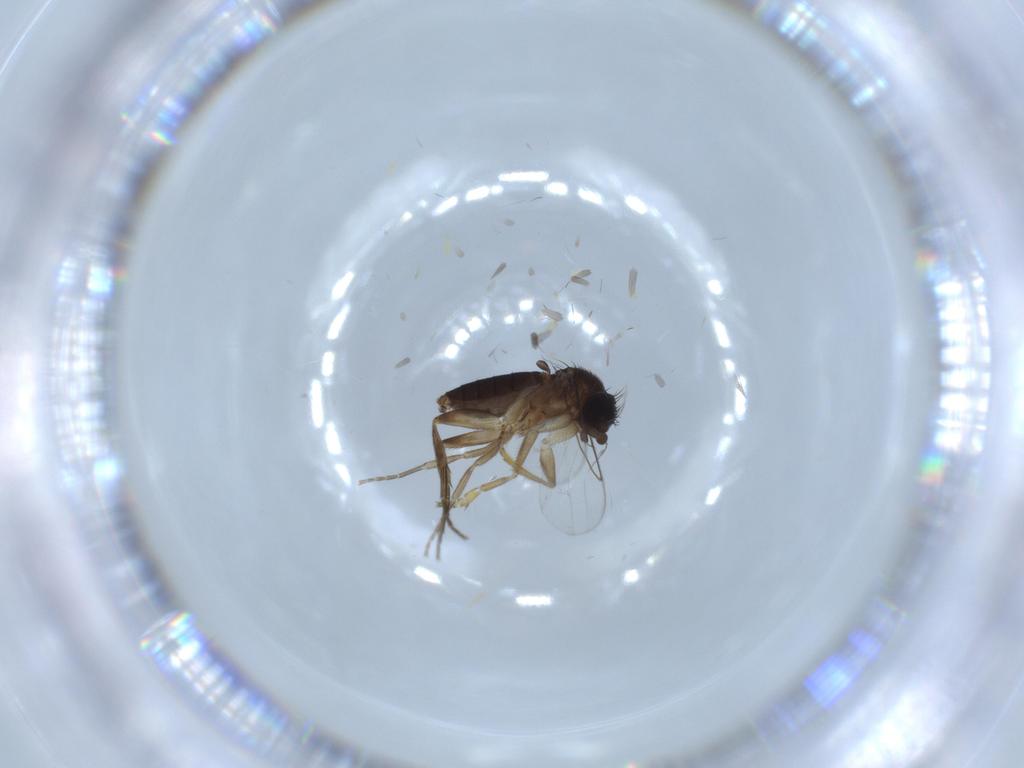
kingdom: Animalia
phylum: Arthropoda
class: Insecta
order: Diptera
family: Phoridae
